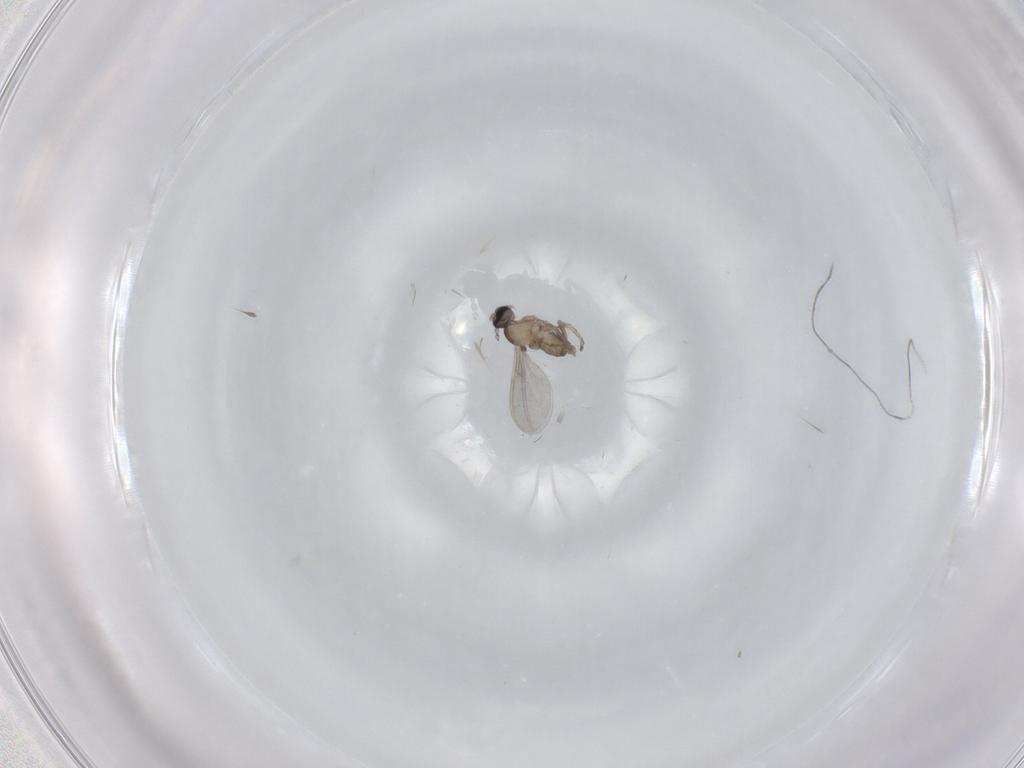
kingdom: Animalia
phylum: Arthropoda
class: Insecta
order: Diptera
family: Cecidomyiidae
